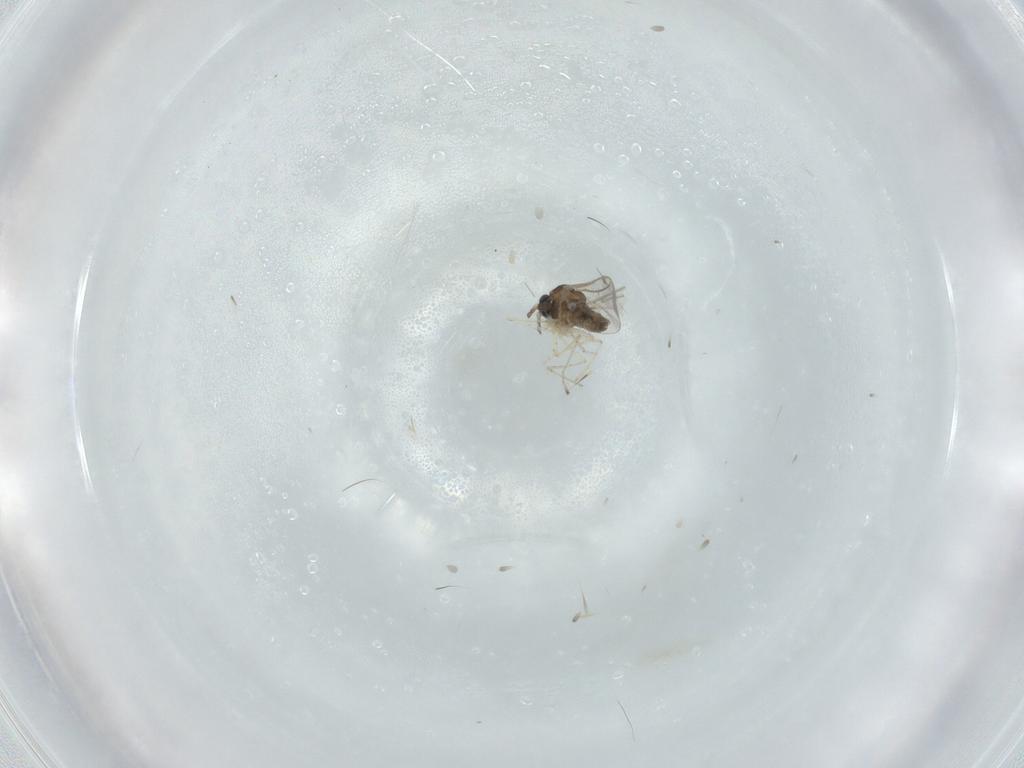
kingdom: Animalia
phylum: Arthropoda
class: Insecta
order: Diptera
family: Cecidomyiidae
